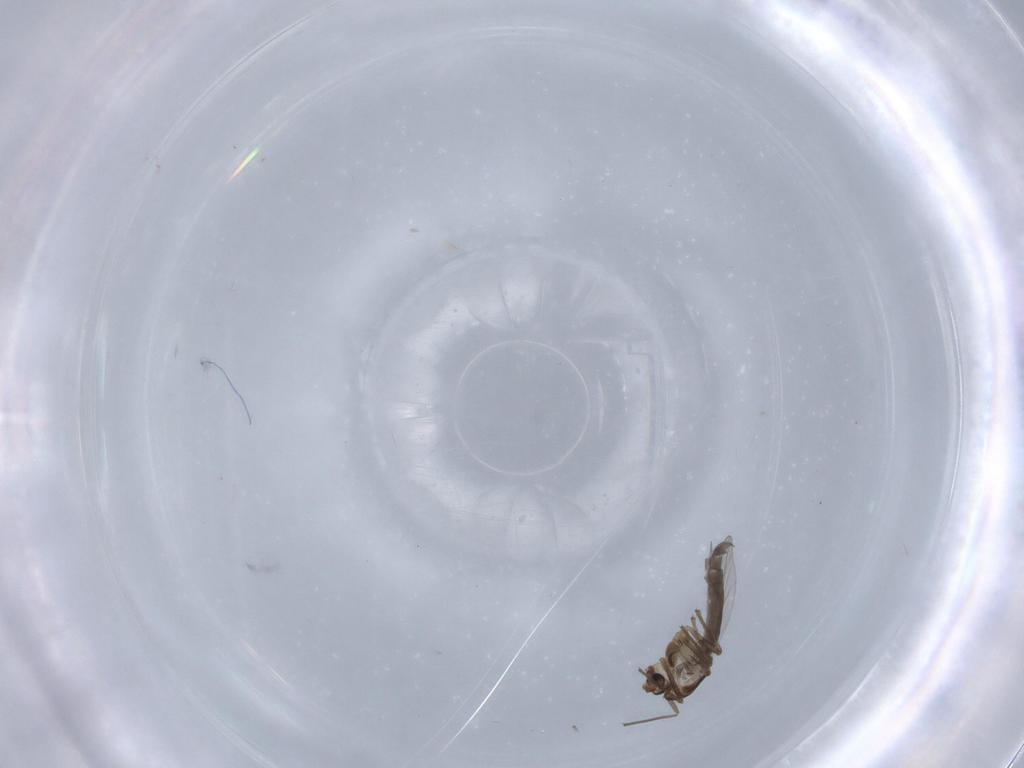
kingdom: Animalia
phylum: Arthropoda
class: Insecta
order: Diptera
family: Chironomidae
